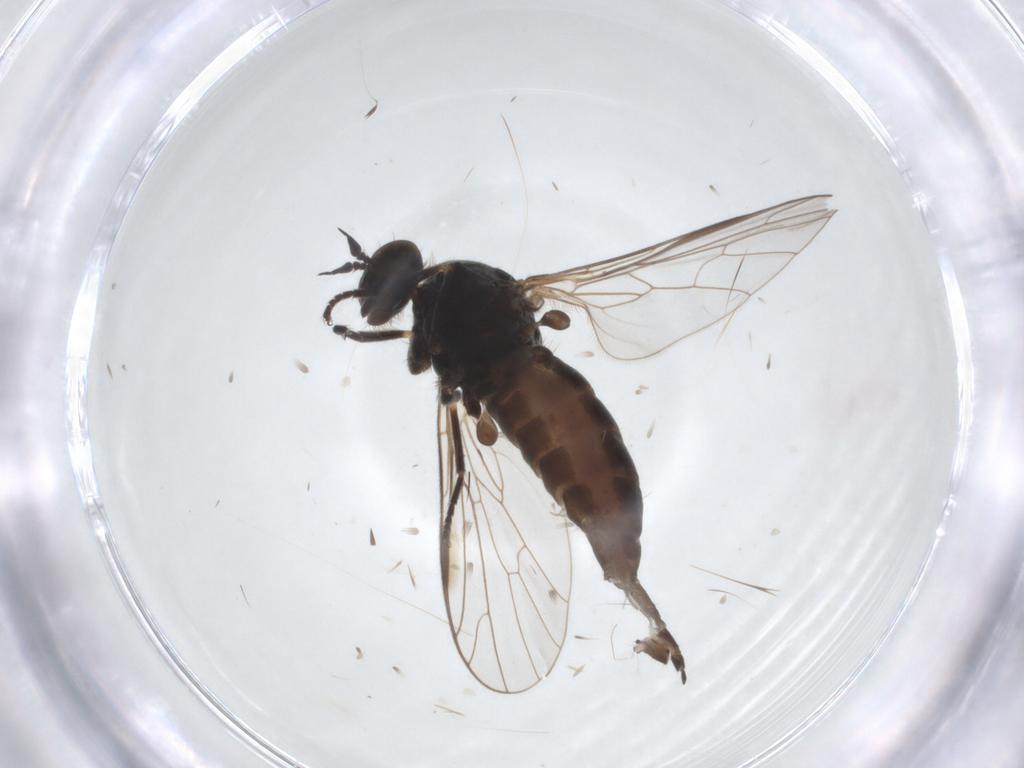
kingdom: Animalia
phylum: Arthropoda
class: Insecta
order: Diptera
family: Empididae
